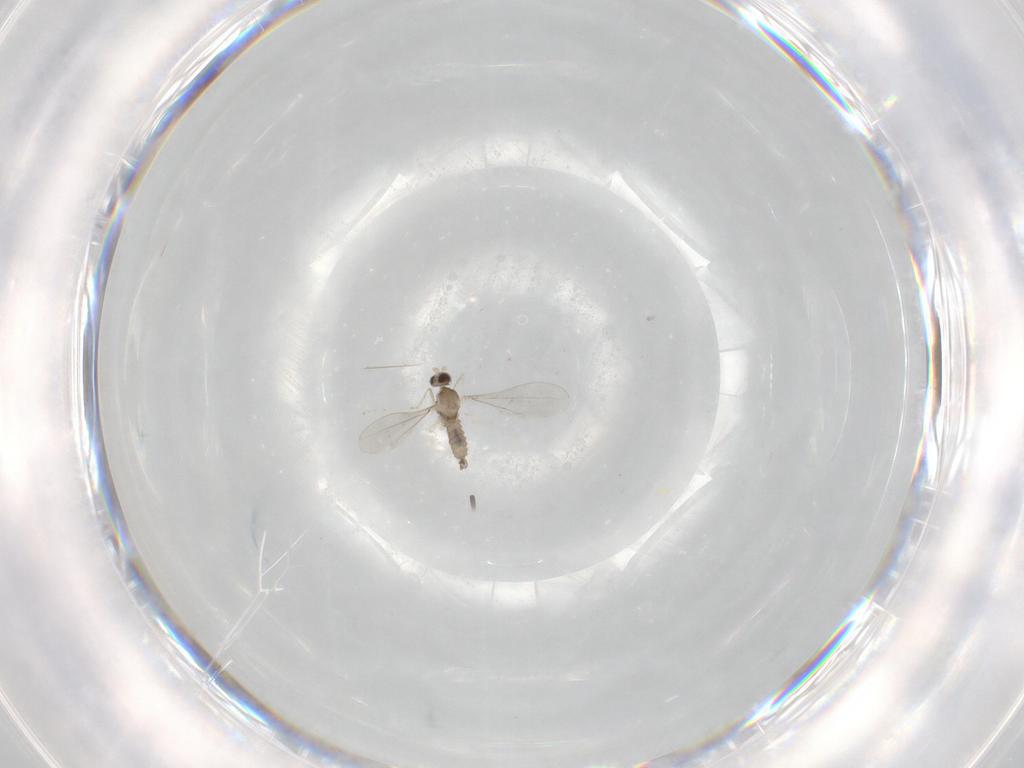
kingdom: Animalia
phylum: Arthropoda
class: Insecta
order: Diptera
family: Cecidomyiidae
